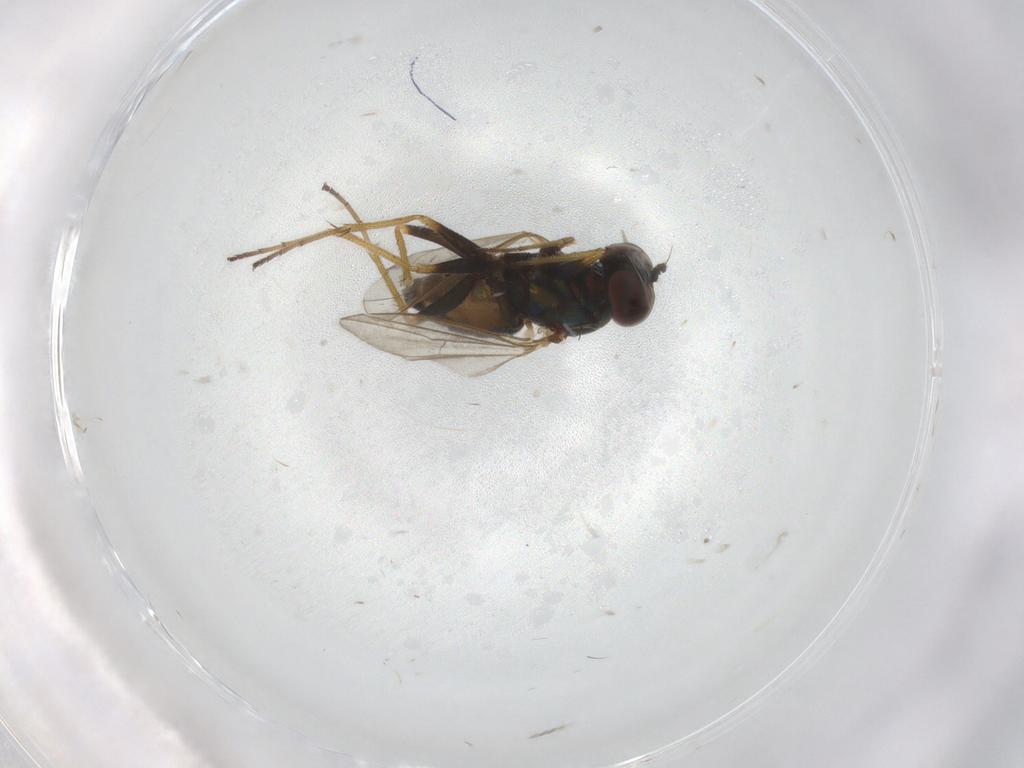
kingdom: Animalia
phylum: Arthropoda
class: Insecta
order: Diptera
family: Dolichopodidae
